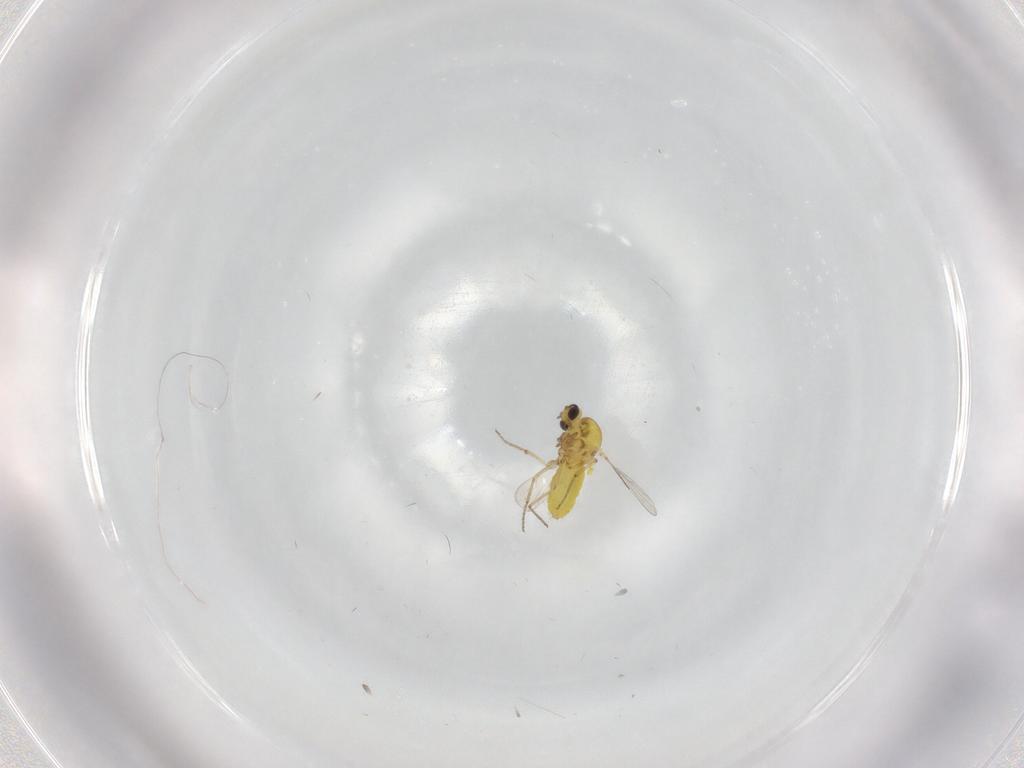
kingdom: Animalia
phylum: Arthropoda
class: Insecta
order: Diptera
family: Ceratopogonidae
